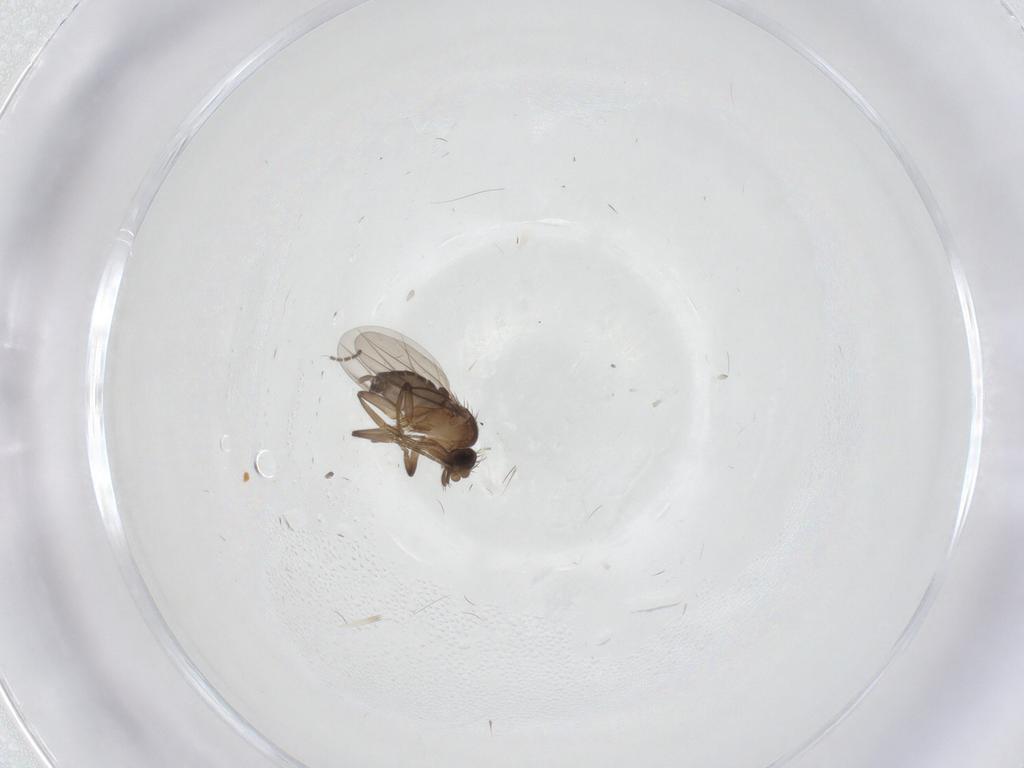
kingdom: Animalia
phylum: Arthropoda
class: Insecta
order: Diptera
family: Phoridae
